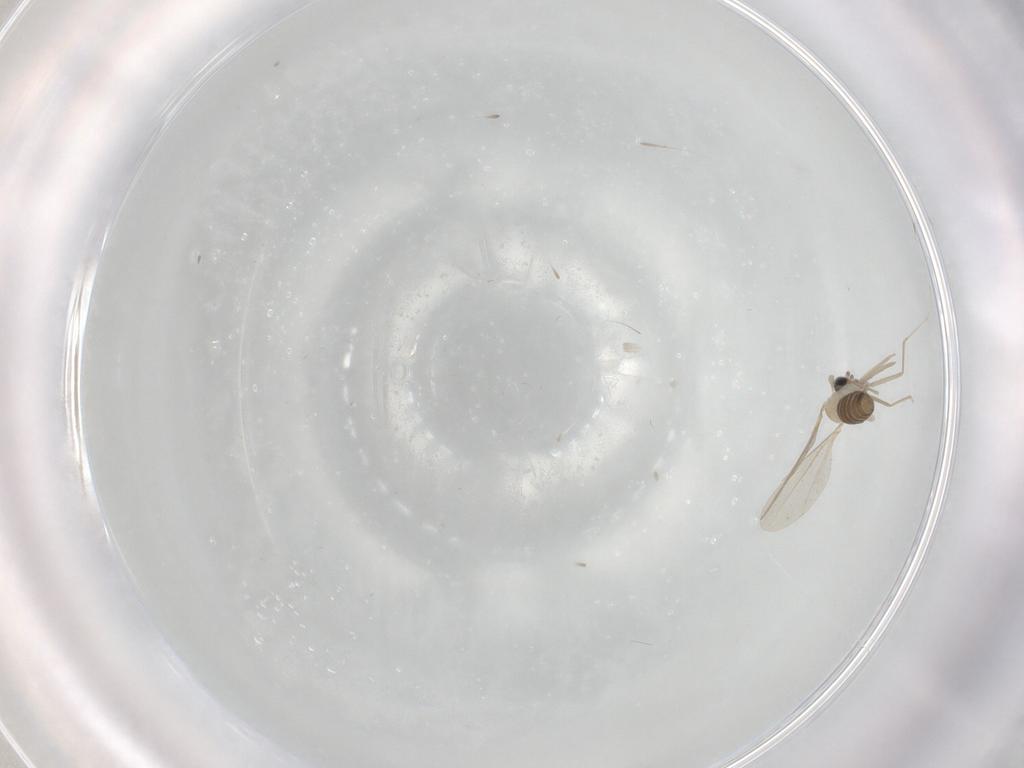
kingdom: Animalia
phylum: Arthropoda
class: Insecta
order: Diptera
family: Cecidomyiidae
